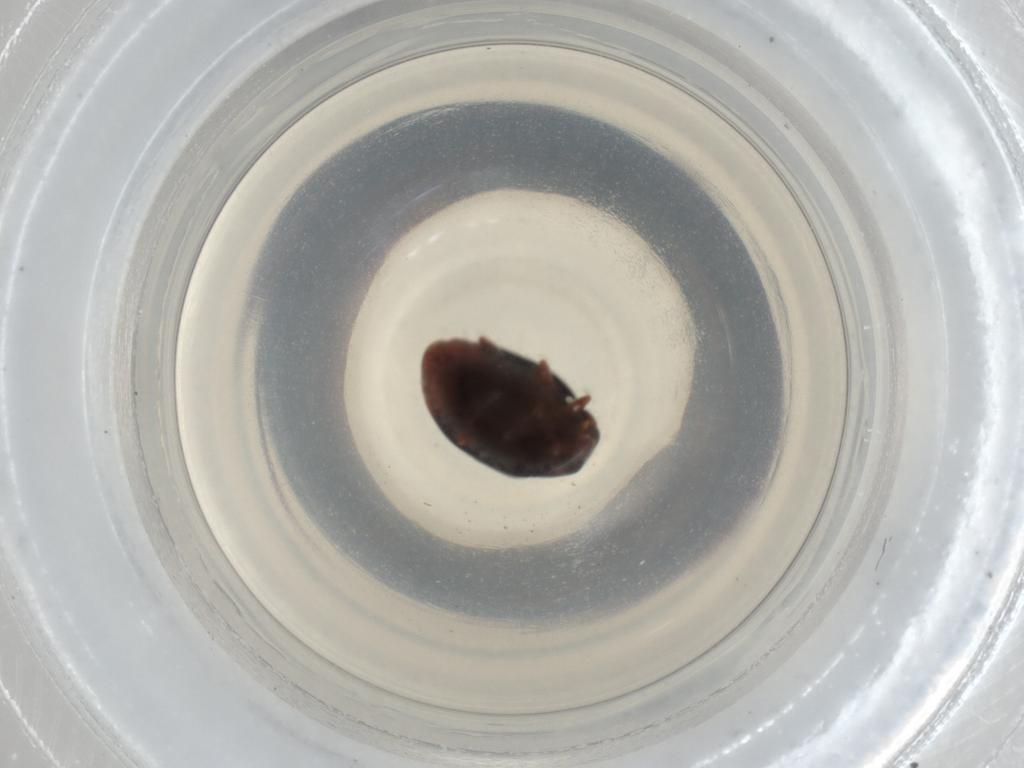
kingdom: Animalia
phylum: Arthropoda
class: Insecta
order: Coleoptera
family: Coccinellidae
